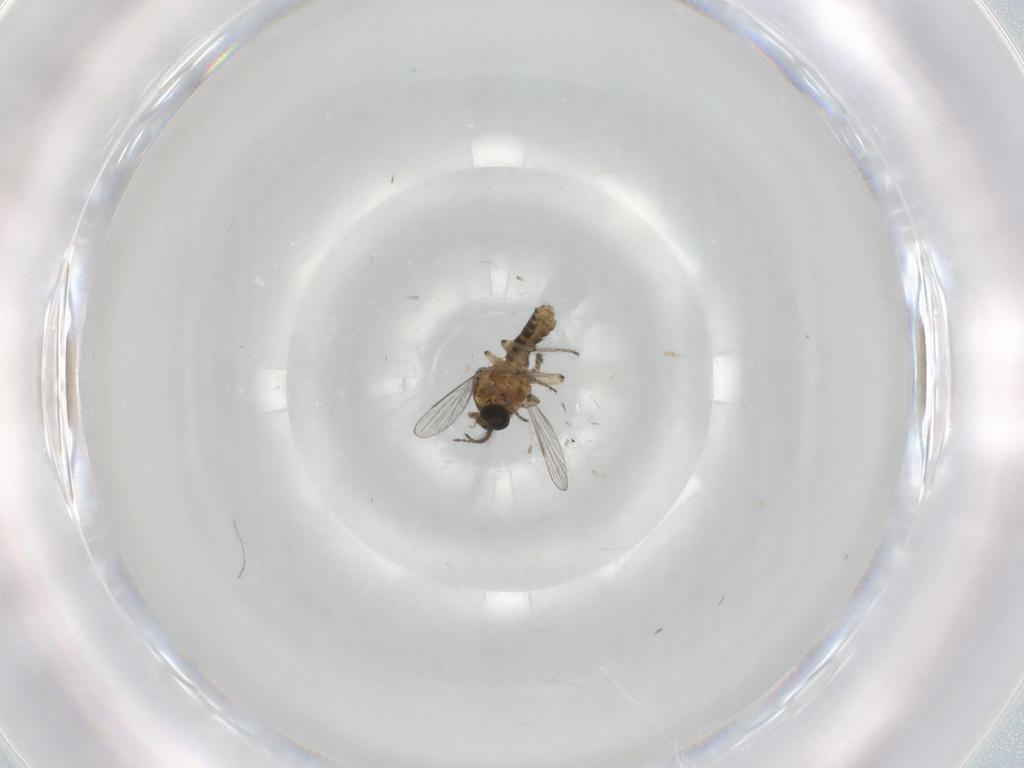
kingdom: Animalia
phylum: Arthropoda
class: Insecta
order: Diptera
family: Ceratopogonidae
